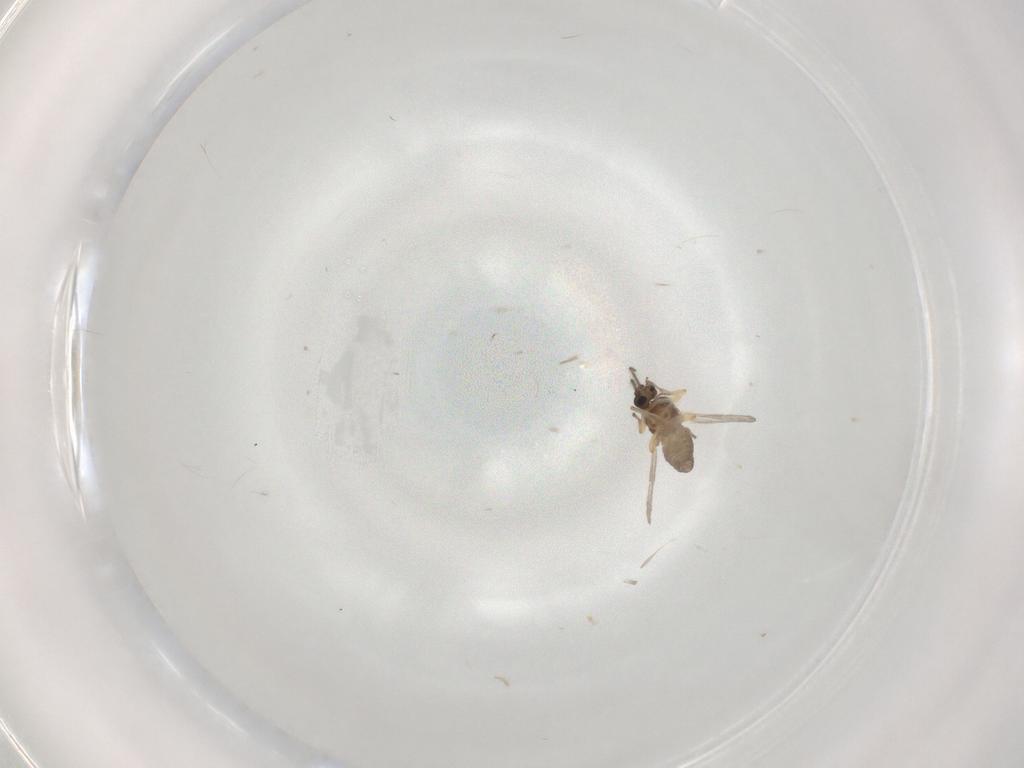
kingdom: Animalia
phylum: Arthropoda
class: Insecta
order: Diptera
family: Ceratopogonidae
